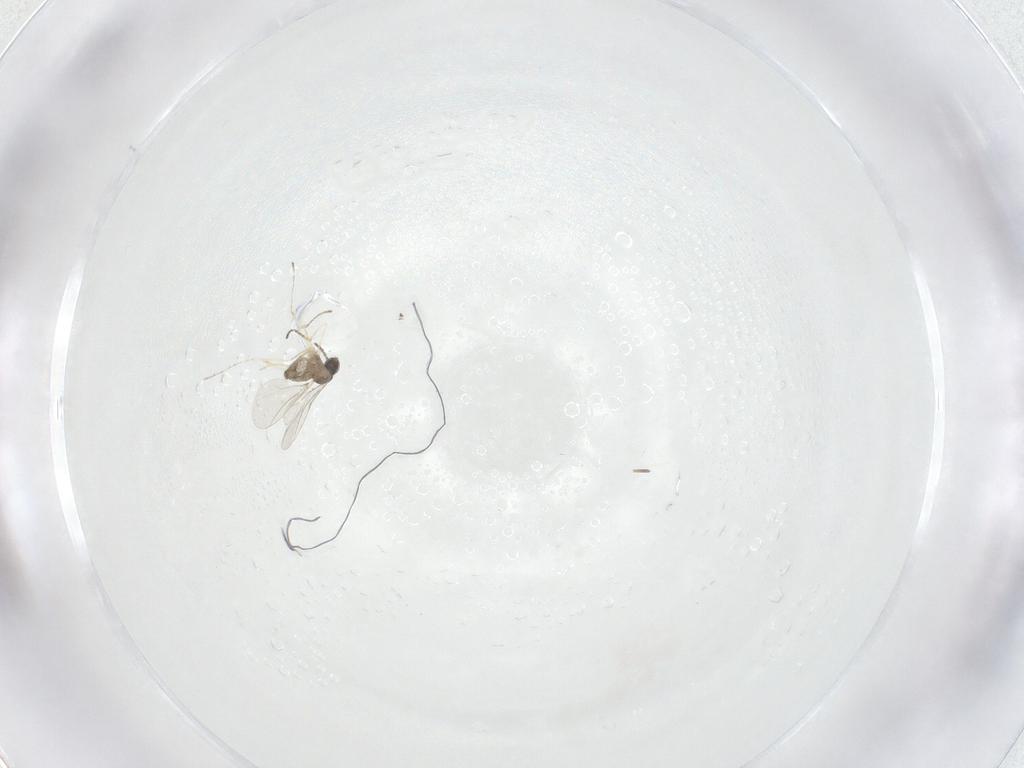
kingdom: Animalia
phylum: Arthropoda
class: Insecta
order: Diptera
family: Cecidomyiidae
